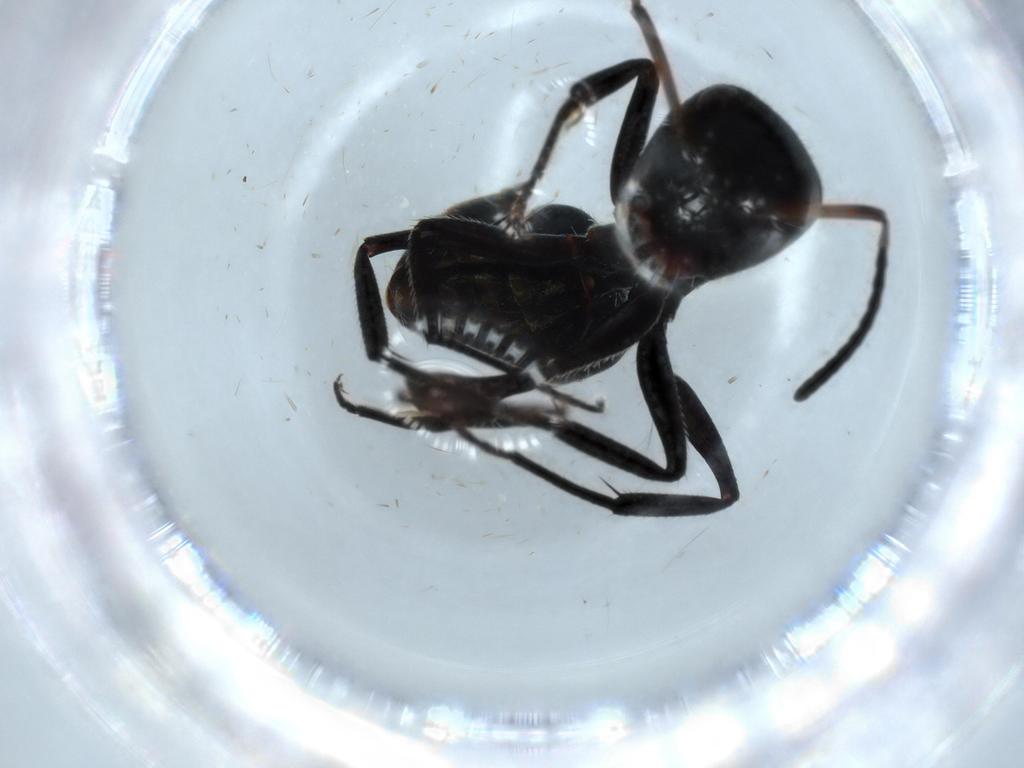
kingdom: Animalia
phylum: Arthropoda
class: Insecta
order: Hymenoptera
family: Formicidae
